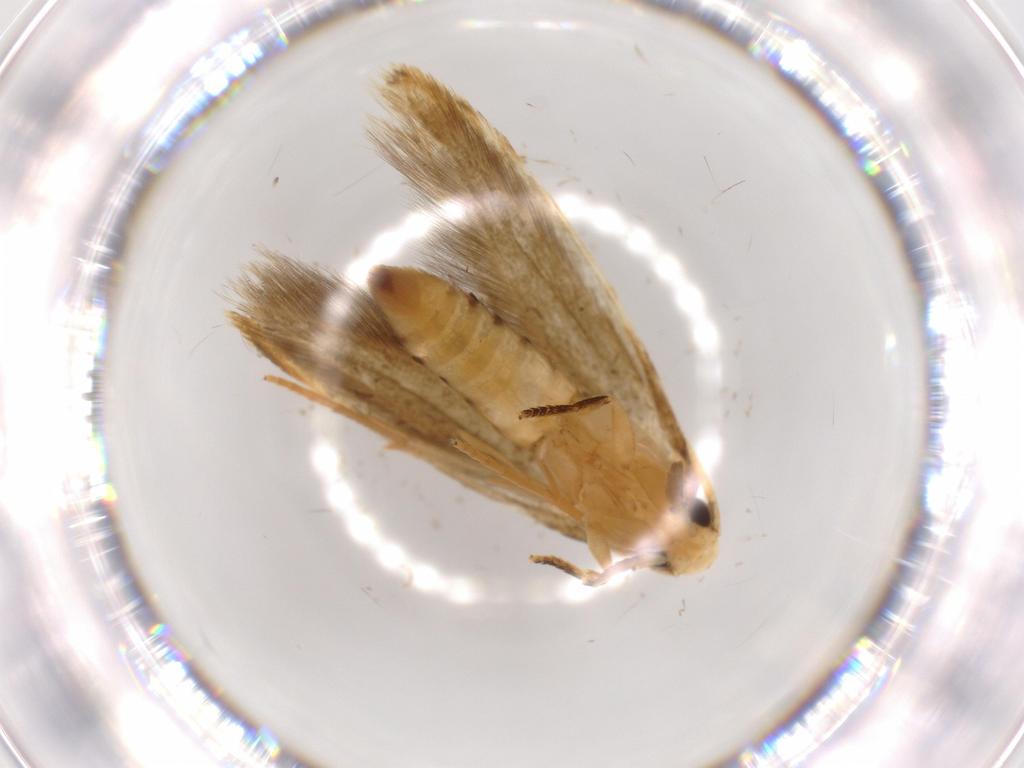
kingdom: Animalia
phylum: Arthropoda
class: Insecta
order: Lepidoptera
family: Tineidae
